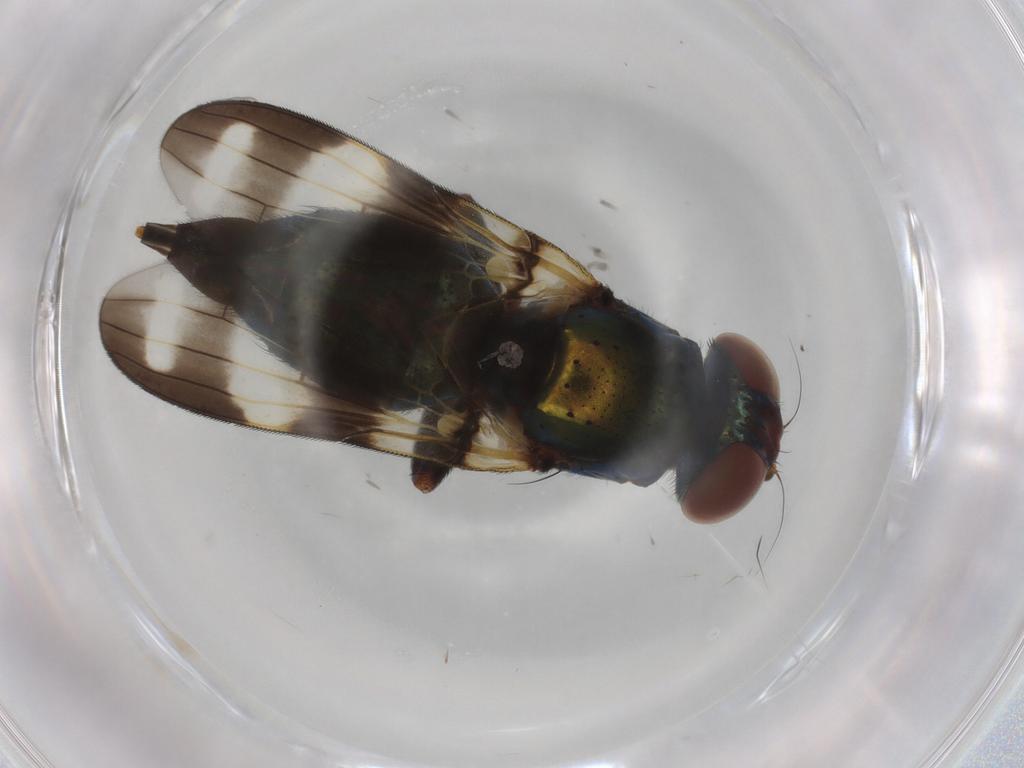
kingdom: Animalia
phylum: Arthropoda
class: Insecta
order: Diptera
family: Ulidiidae
